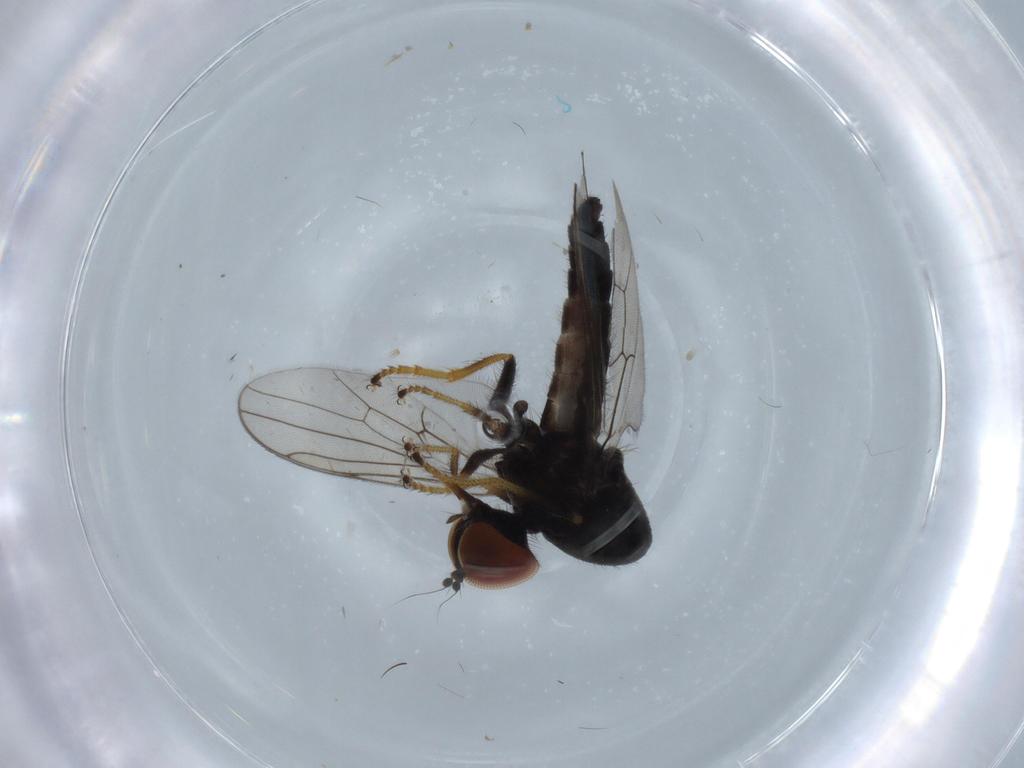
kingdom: Animalia
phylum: Arthropoda
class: Insecta
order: Diptera
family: Hybotidae
